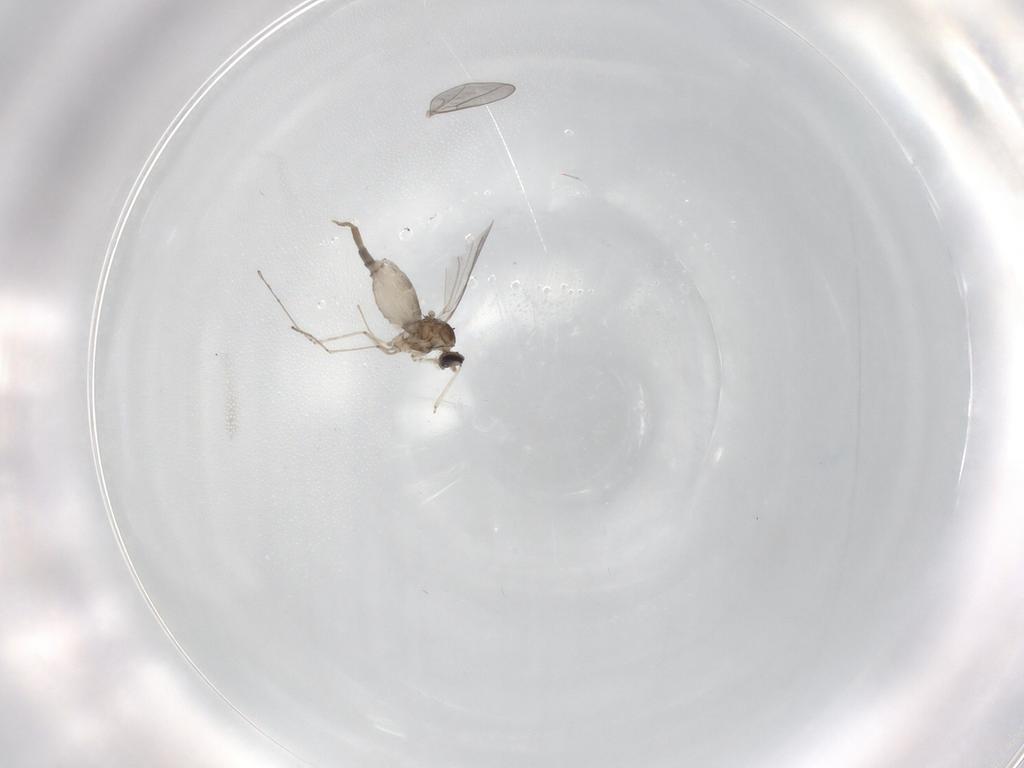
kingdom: Animalia
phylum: Arthropoda
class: Insecta
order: Diptera
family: Cecidomyiidae
